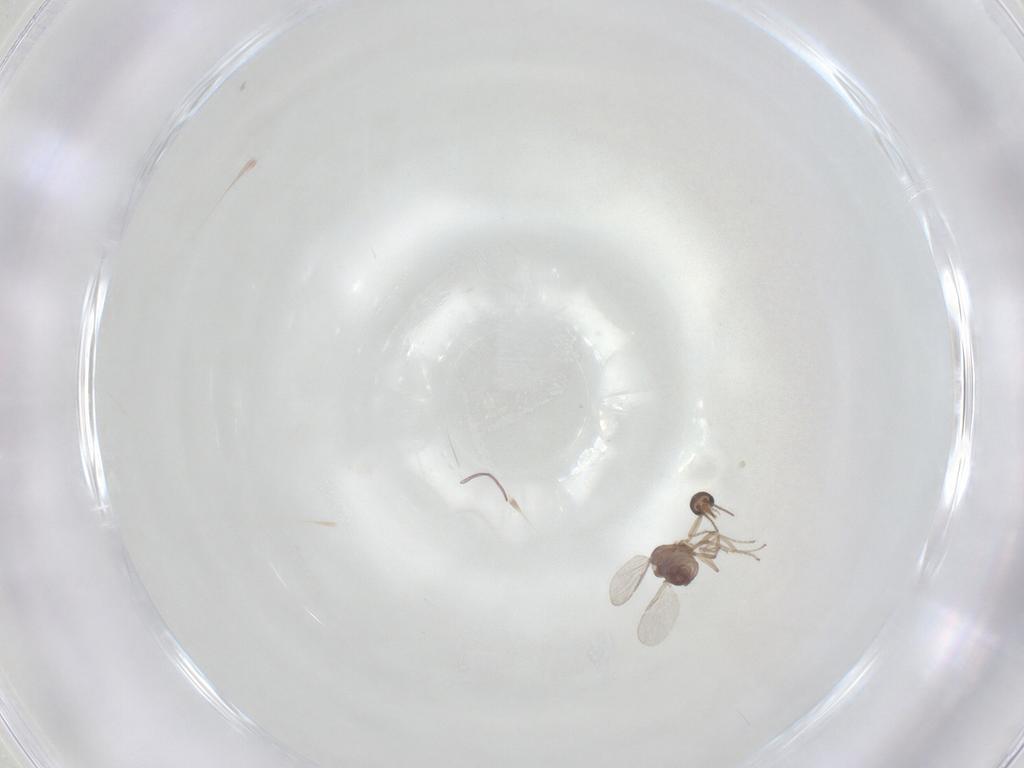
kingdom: Animalia
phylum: Arthropoda
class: Insecta
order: Diptera
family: Ceratopogonidae
